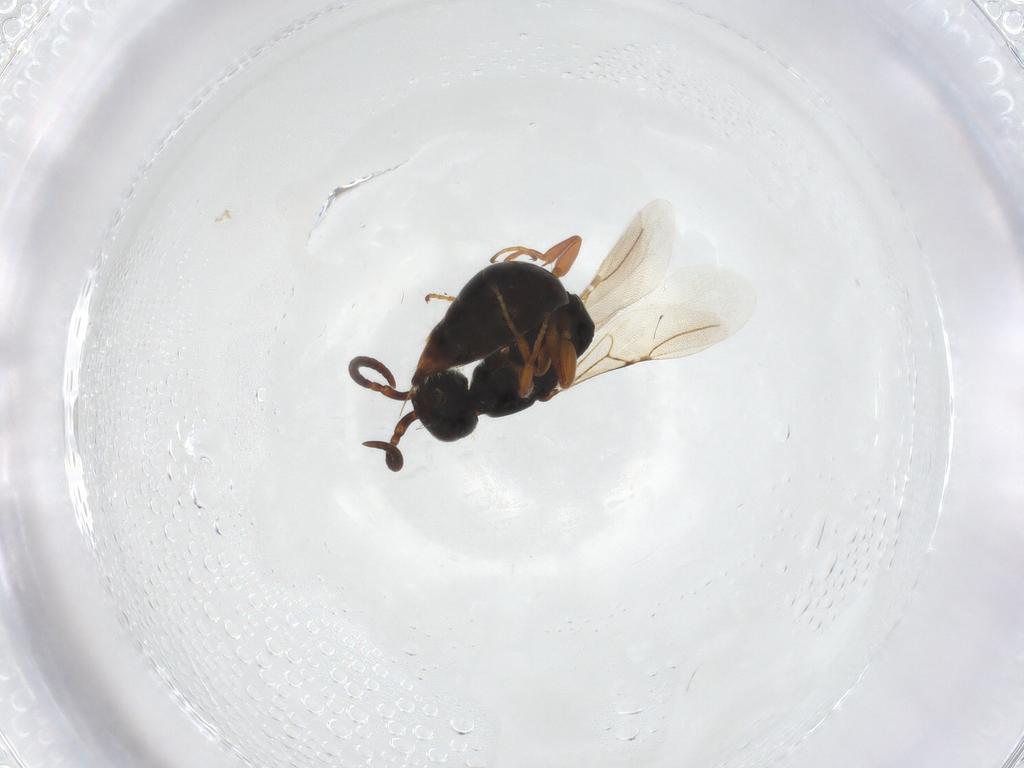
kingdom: Animalia
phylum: Arthropoda
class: Insecta
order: Hymenoptera
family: Bethylidae
